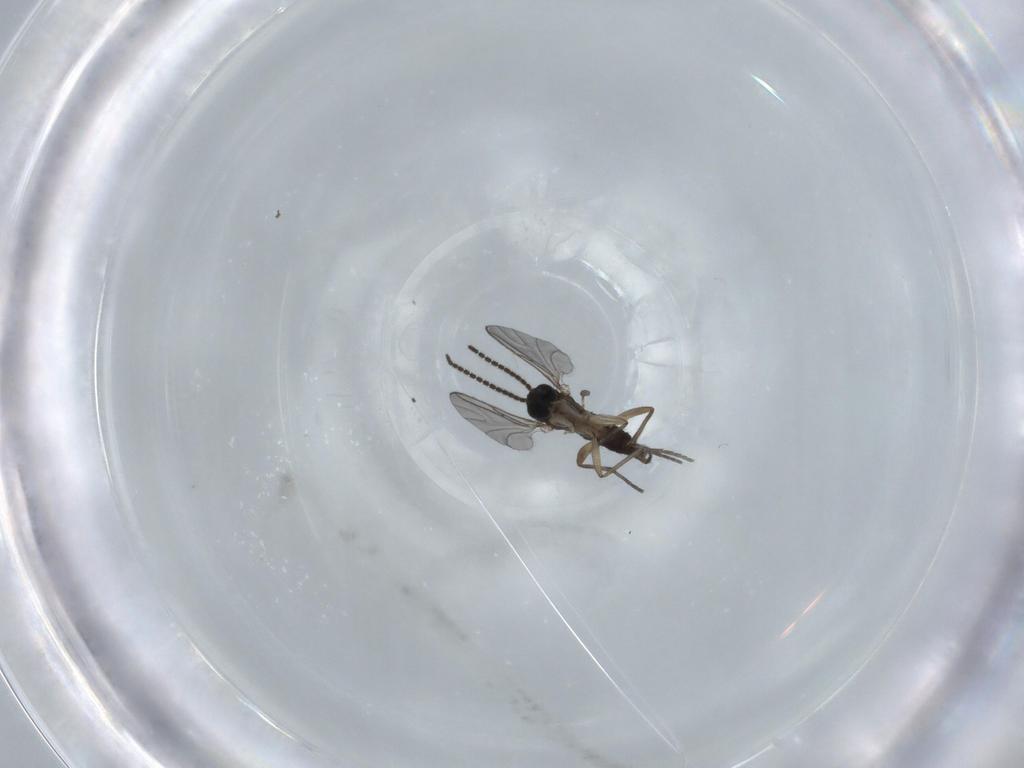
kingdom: Animalia
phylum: Arthropoda
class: Insecta
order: Diptera
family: Sciaridae
